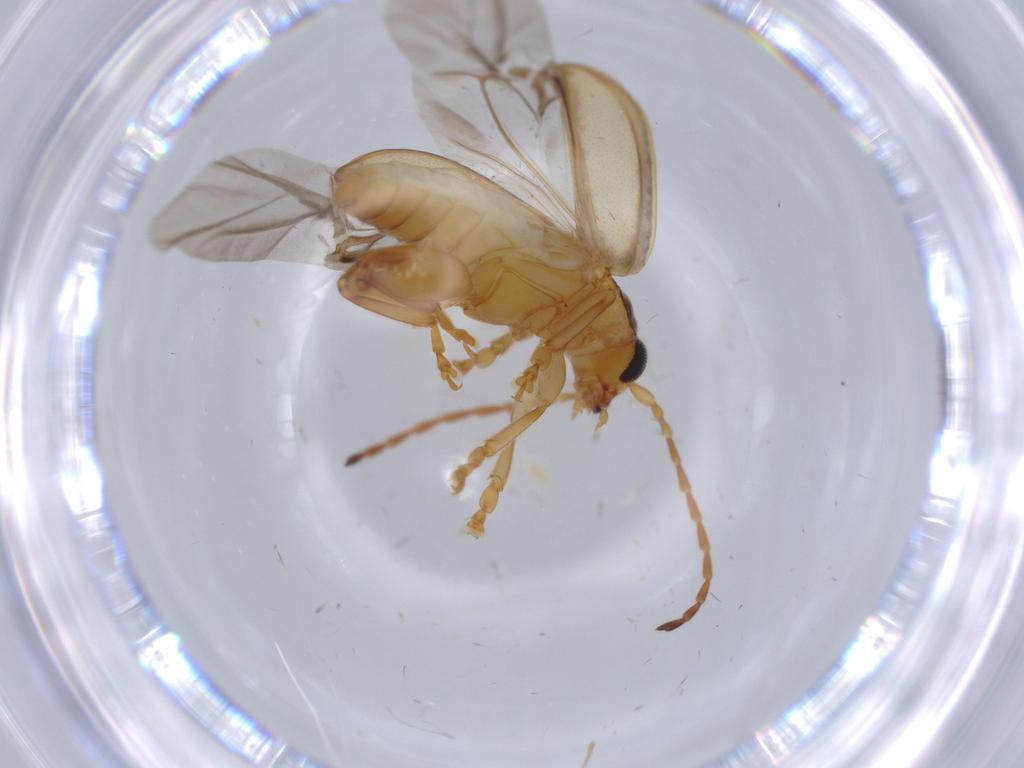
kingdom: Animalia
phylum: Arthropoda
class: Insecta
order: Coleoptera
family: Chrysomelidae
